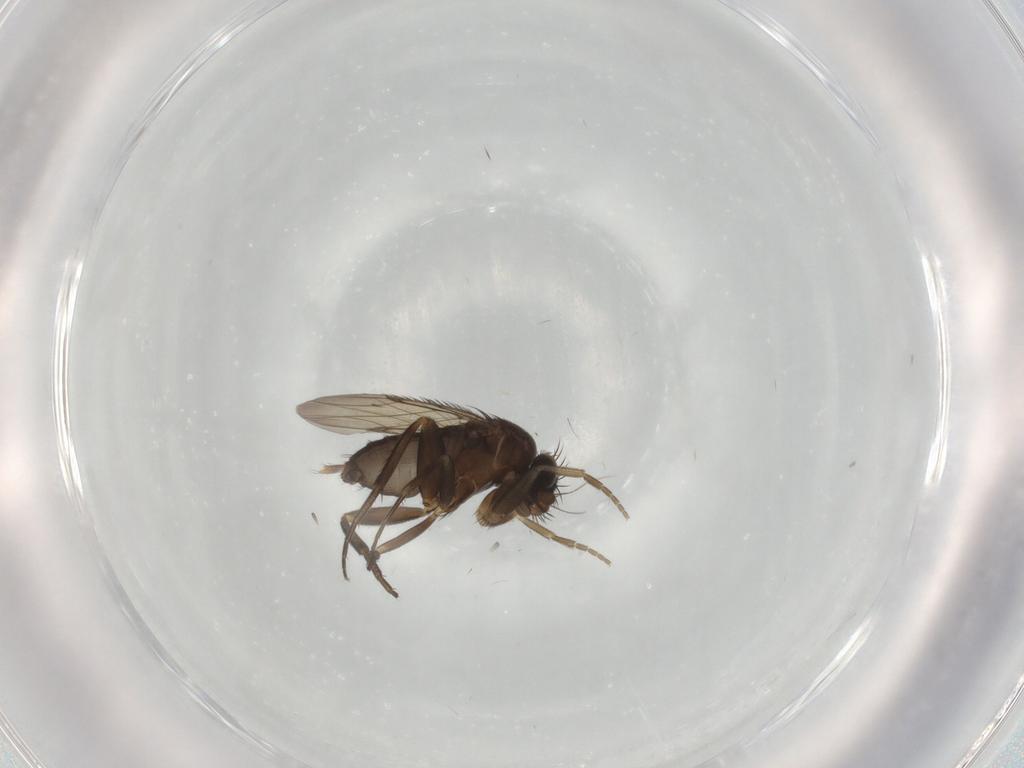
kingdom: Animalia
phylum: Arthropoda
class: Insecta
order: Diptera
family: Phoridae
